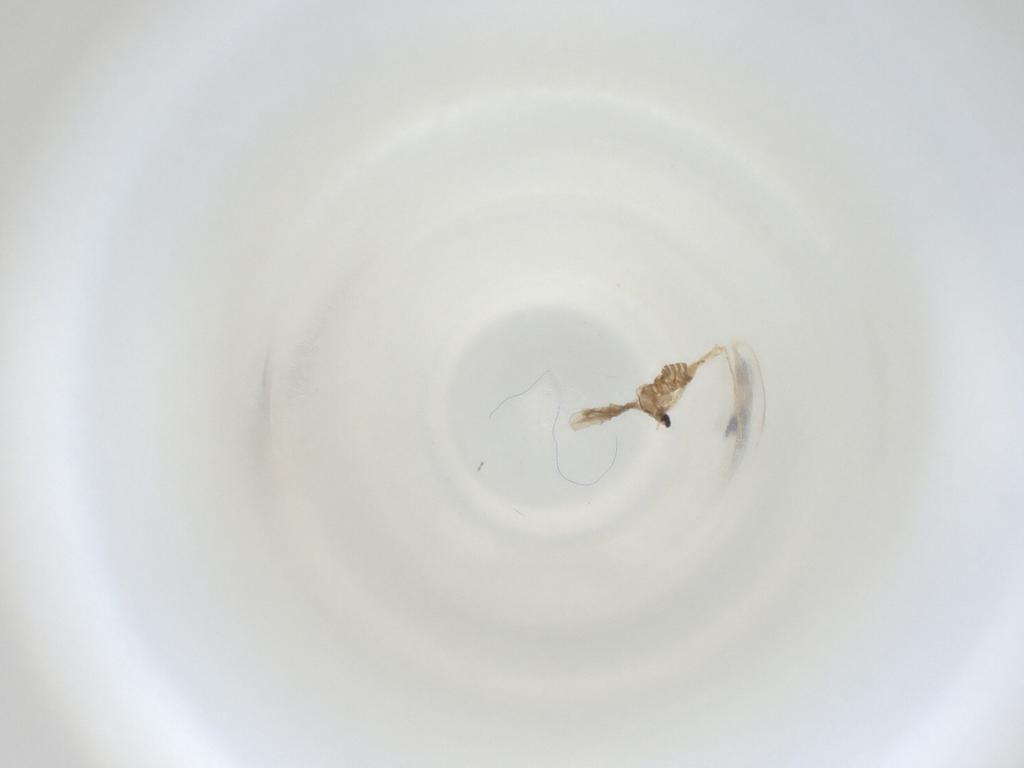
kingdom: Animalia
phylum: Arthropoda
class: Insecta
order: Diptera
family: Cecidomyiidae
